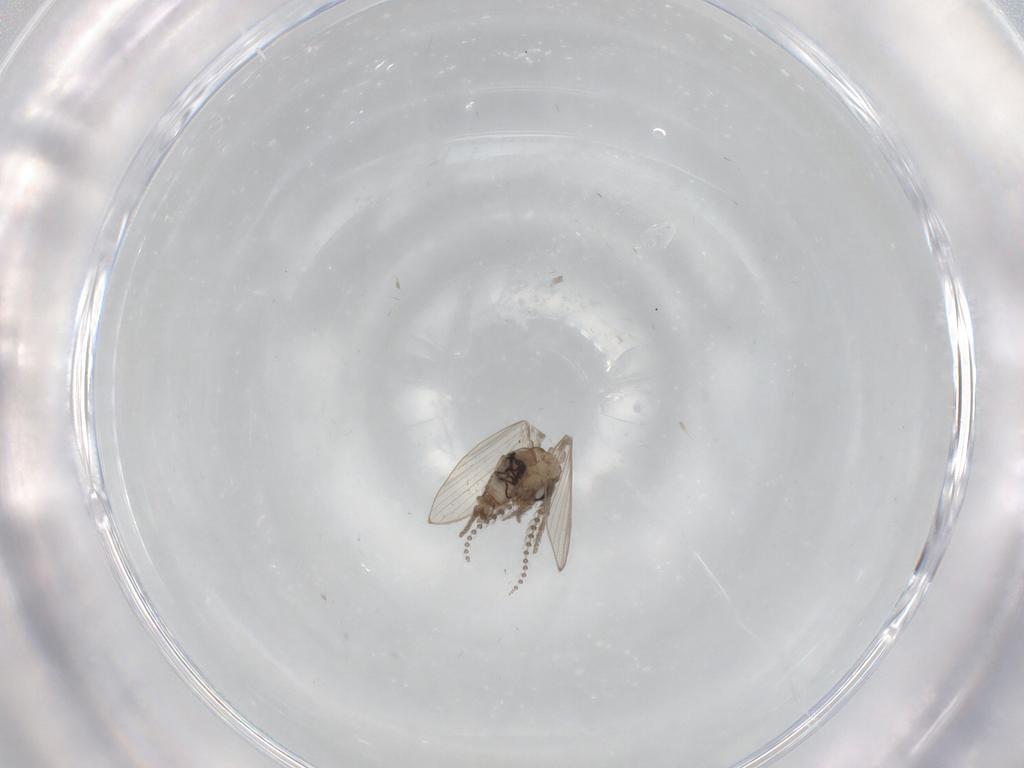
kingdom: Animalia
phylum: Arthropoda
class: Insecta
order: Diptera
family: Psychodidae
